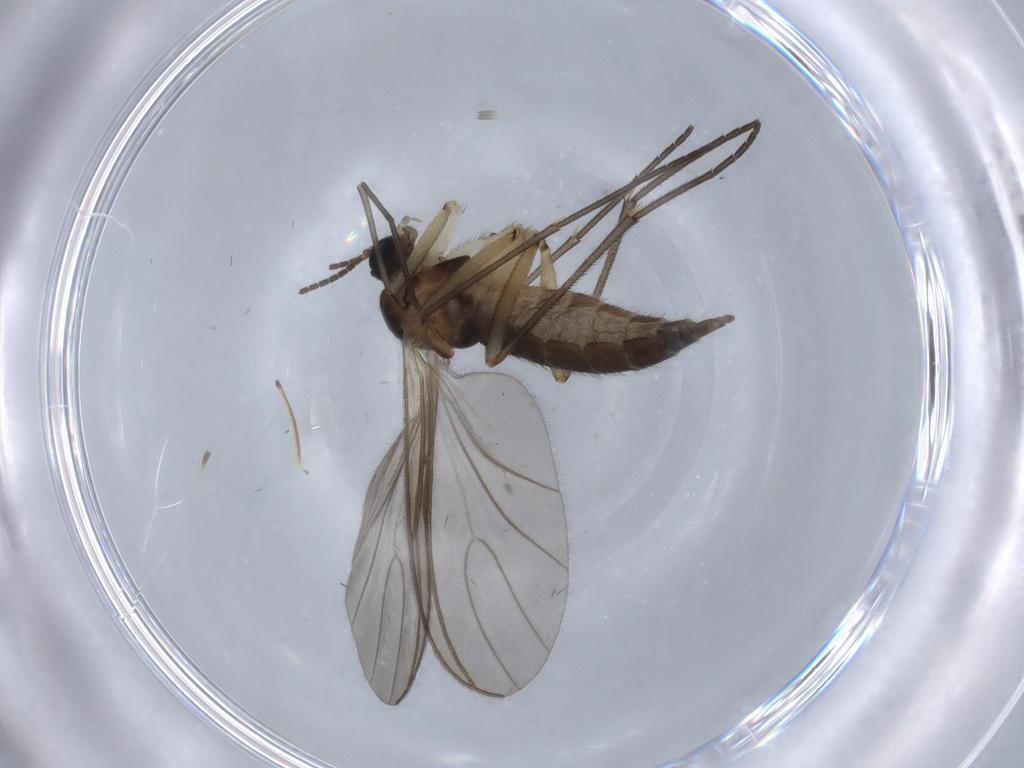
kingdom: Animalia
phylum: Arthropoda
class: Insecta
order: Diptera
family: Sciaridae
